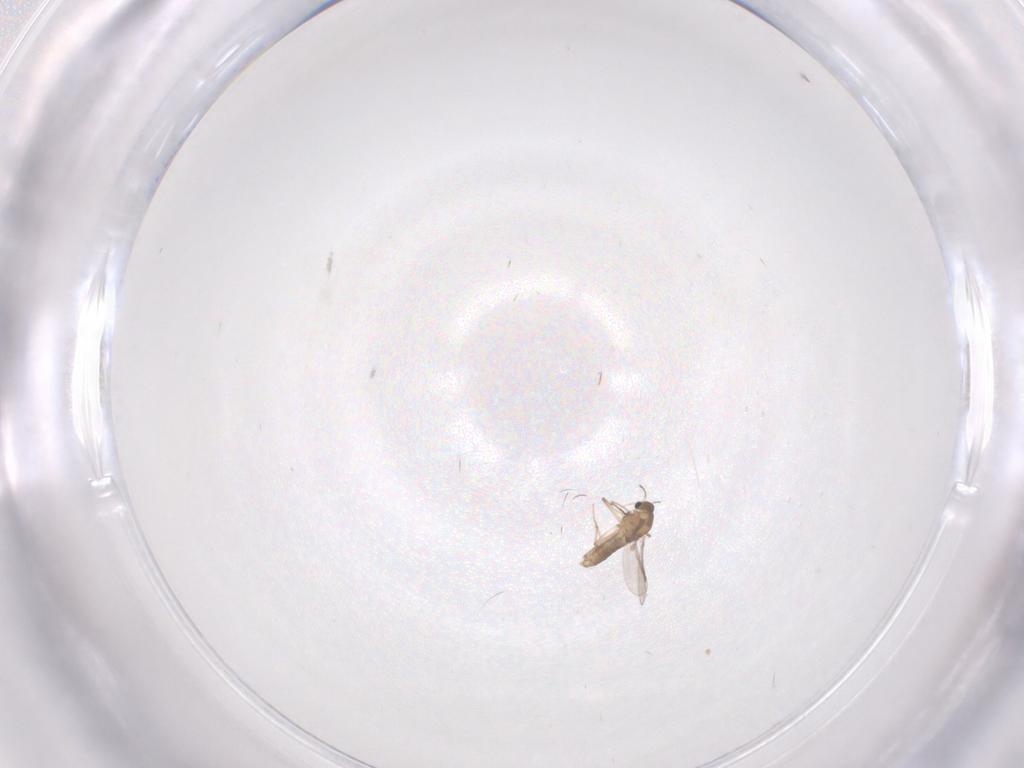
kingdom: Animalia
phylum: Arthropoda
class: Insecta
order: Diptera
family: Chironomidae
